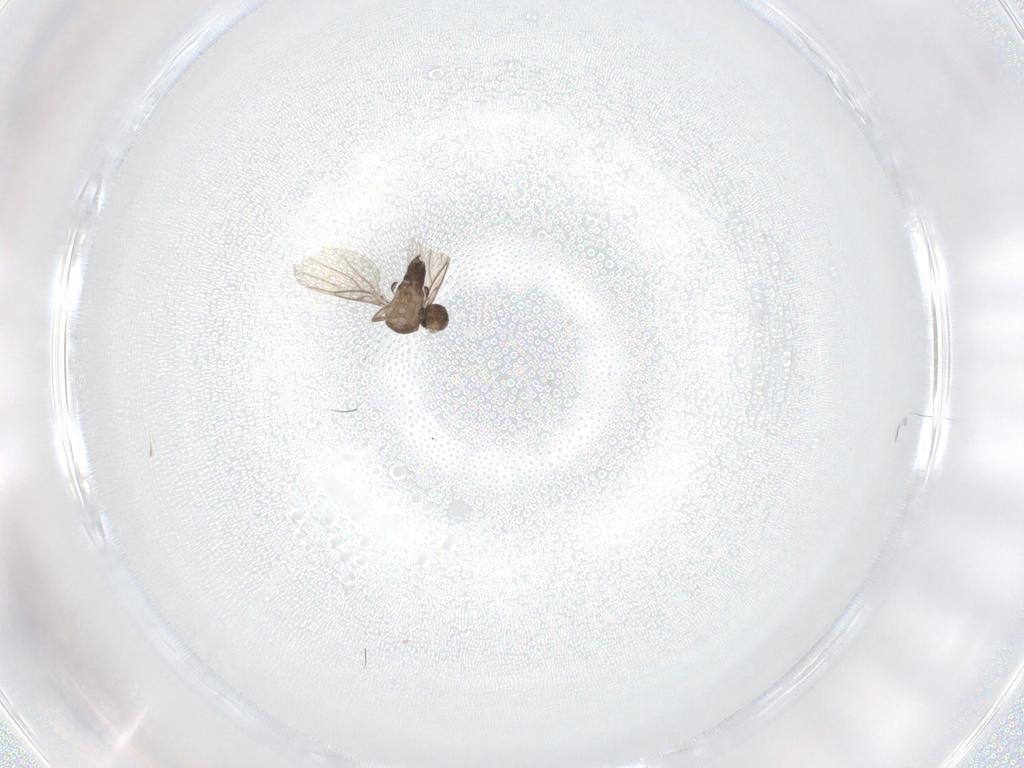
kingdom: Animalia
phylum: Arthropoda
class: Insecta
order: Diptera
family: Phoridae
